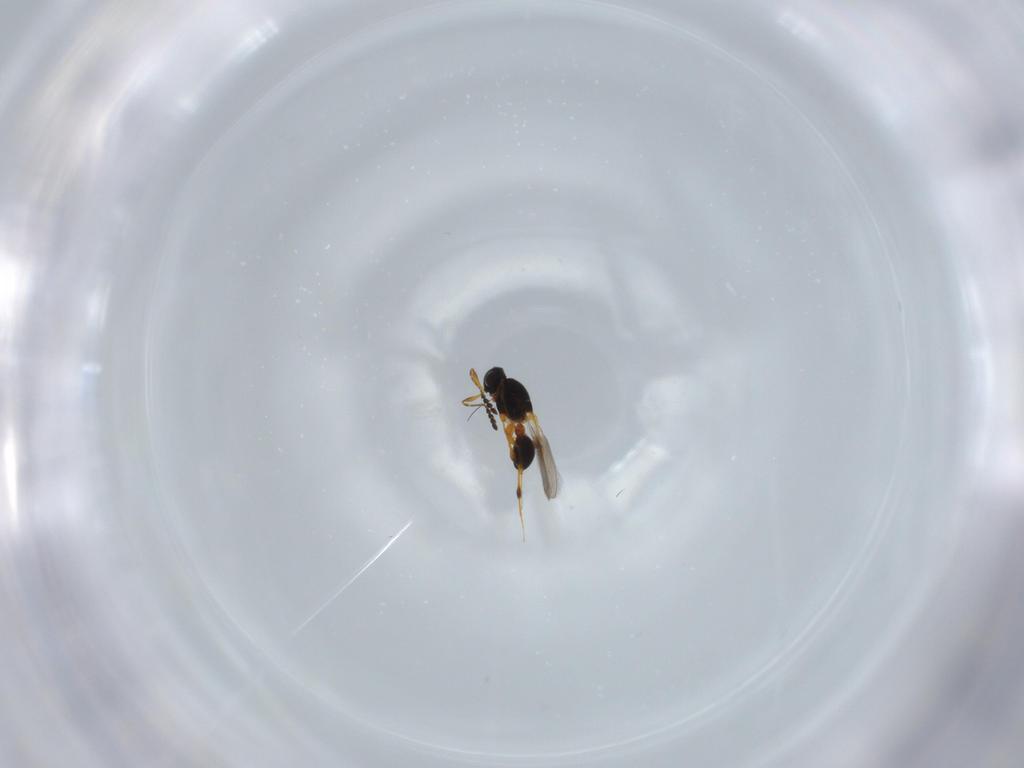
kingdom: Animalia
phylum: Arthropoda
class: Insecta
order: Hymenoptera
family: Platygastridae
